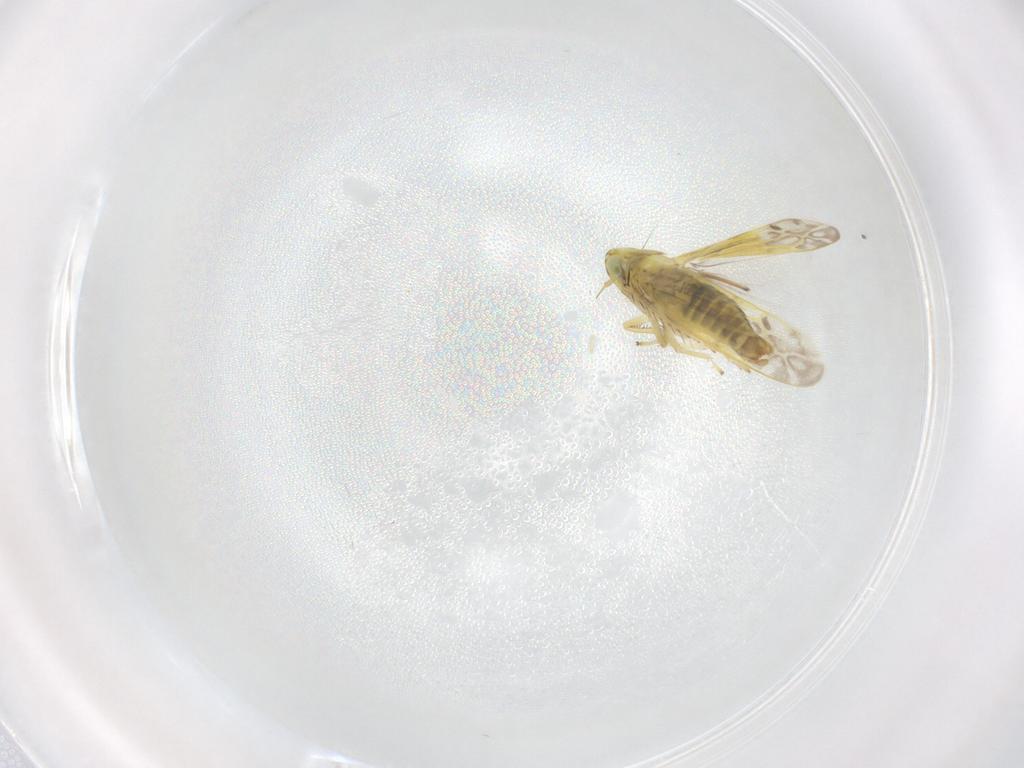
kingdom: Animalia
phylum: Arthropoda
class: Insecta
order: Hemiptera
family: Cicadellidae
